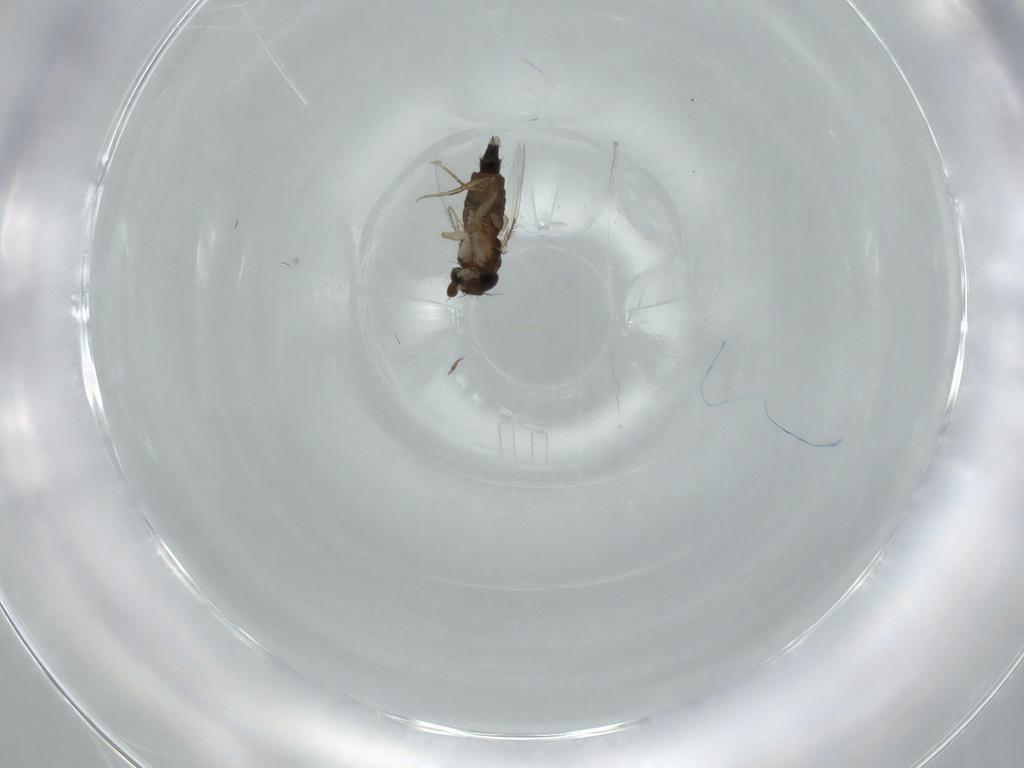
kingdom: Animalia
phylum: Arthropoda
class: Insecta
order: Diptera
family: Phoridae
